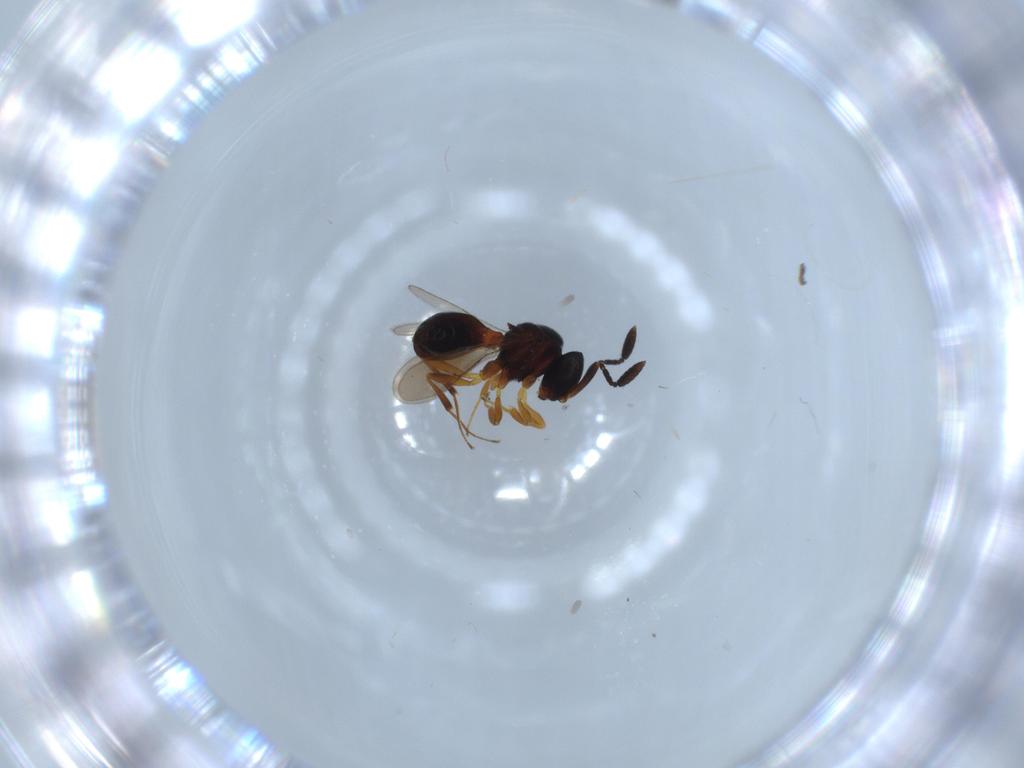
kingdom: Animalia
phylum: Arthropoda
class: Insecta
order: Hymenoptera
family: Scelionidae
